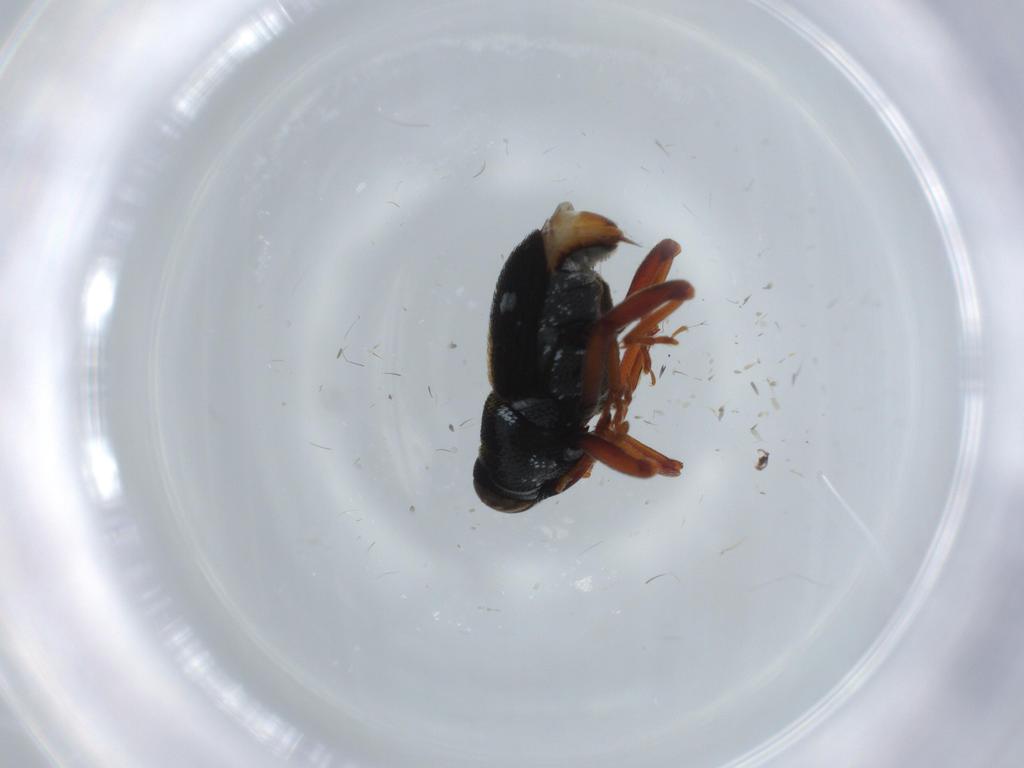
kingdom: Animalia
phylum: Arthropoda
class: Insecta
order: Coleoptera
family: Curculionidae
